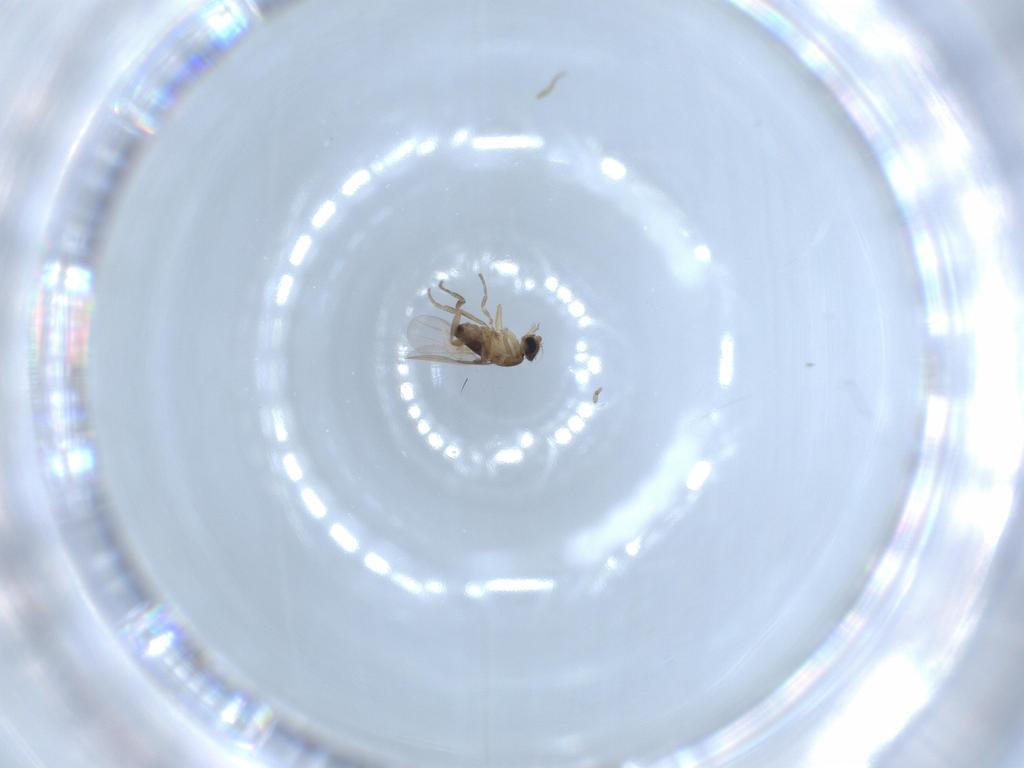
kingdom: Animalia
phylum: Arthropoda
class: Insecta
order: Diptera
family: Phoridae
